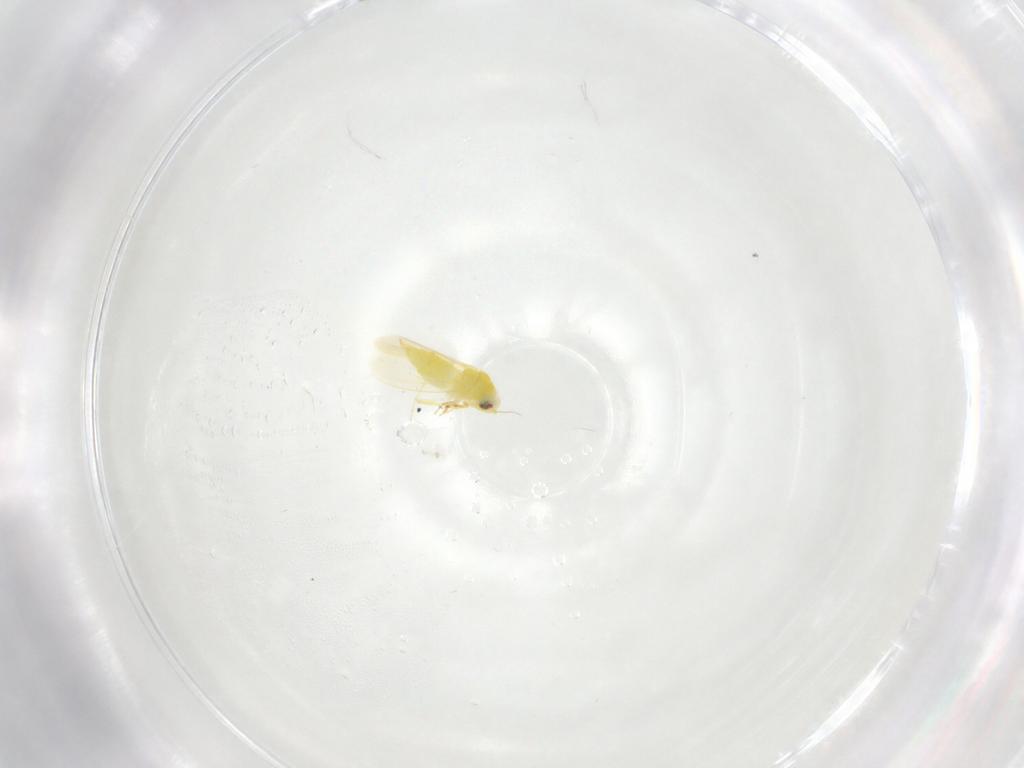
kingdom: Animalia
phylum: Arthropoda
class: Insecta
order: Hemiptera
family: Aleyrodidae
